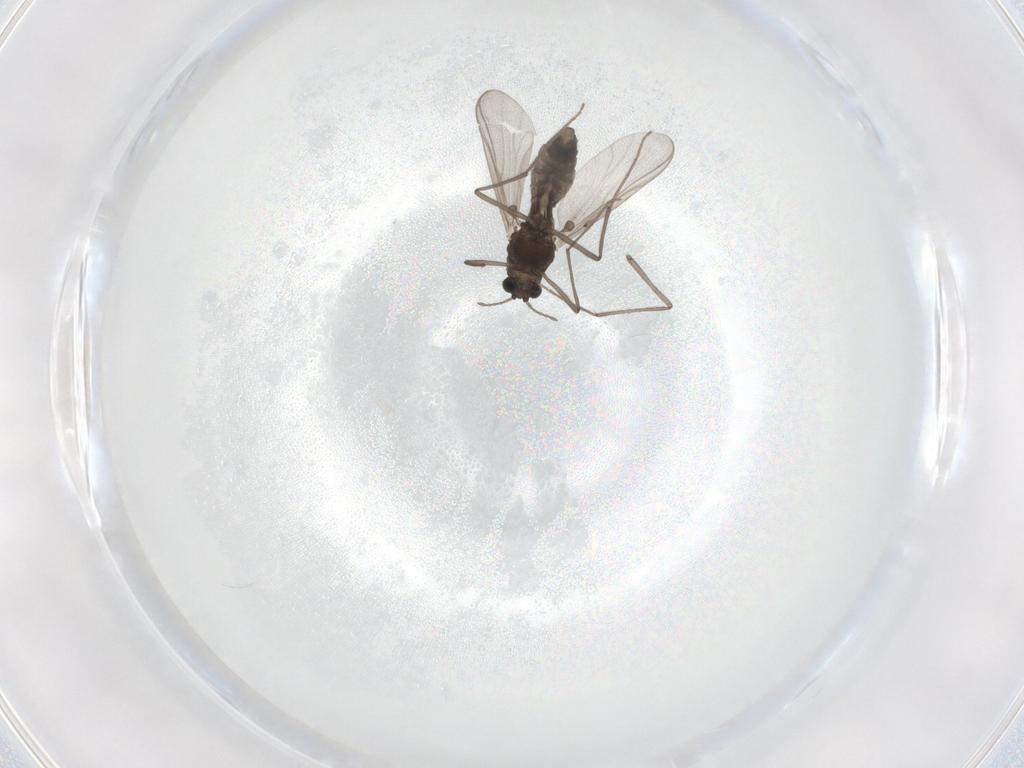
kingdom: Animalia
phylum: Arthropoda
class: Insecta
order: Diptera
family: Chironomidae
